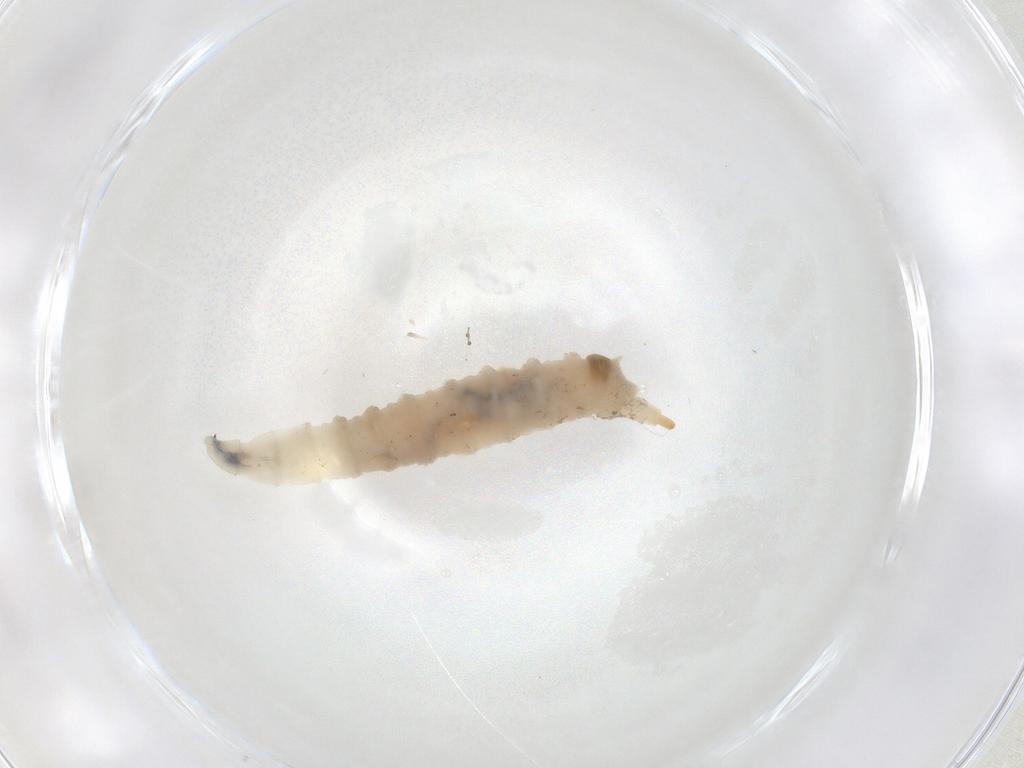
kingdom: Animalia
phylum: Arthropoda
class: Insecta
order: Diptera
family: Drosophilidae
